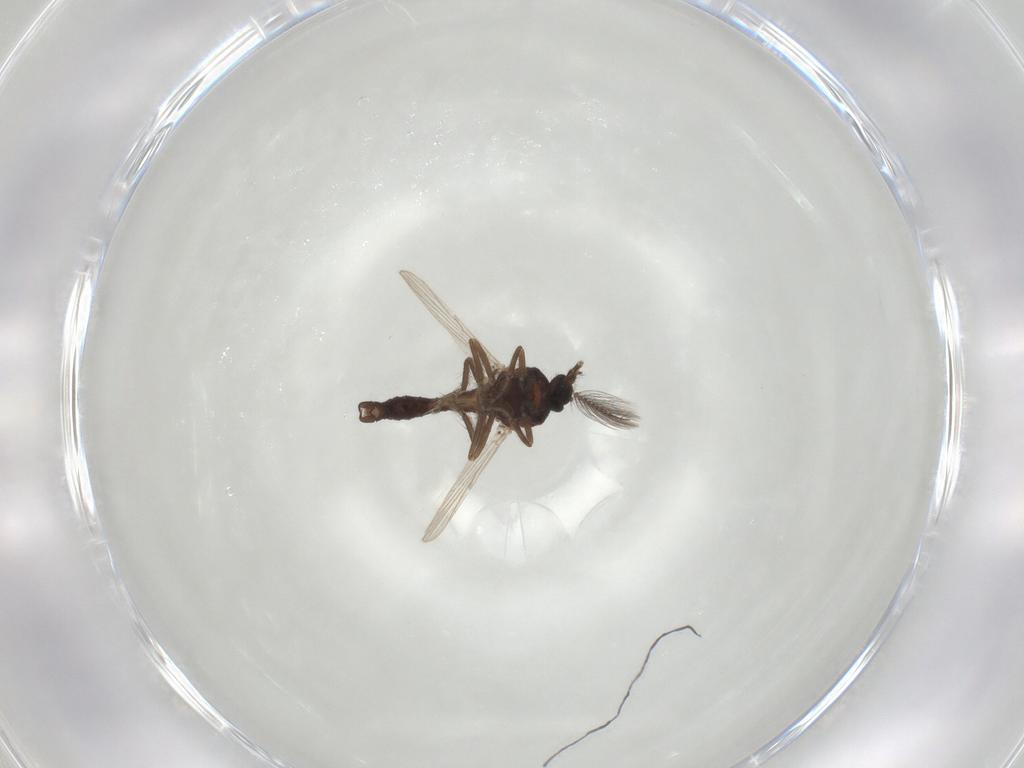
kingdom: Animalia
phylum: Arthropoda
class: Insecta
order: Diptera
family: Ceratopogonidae
